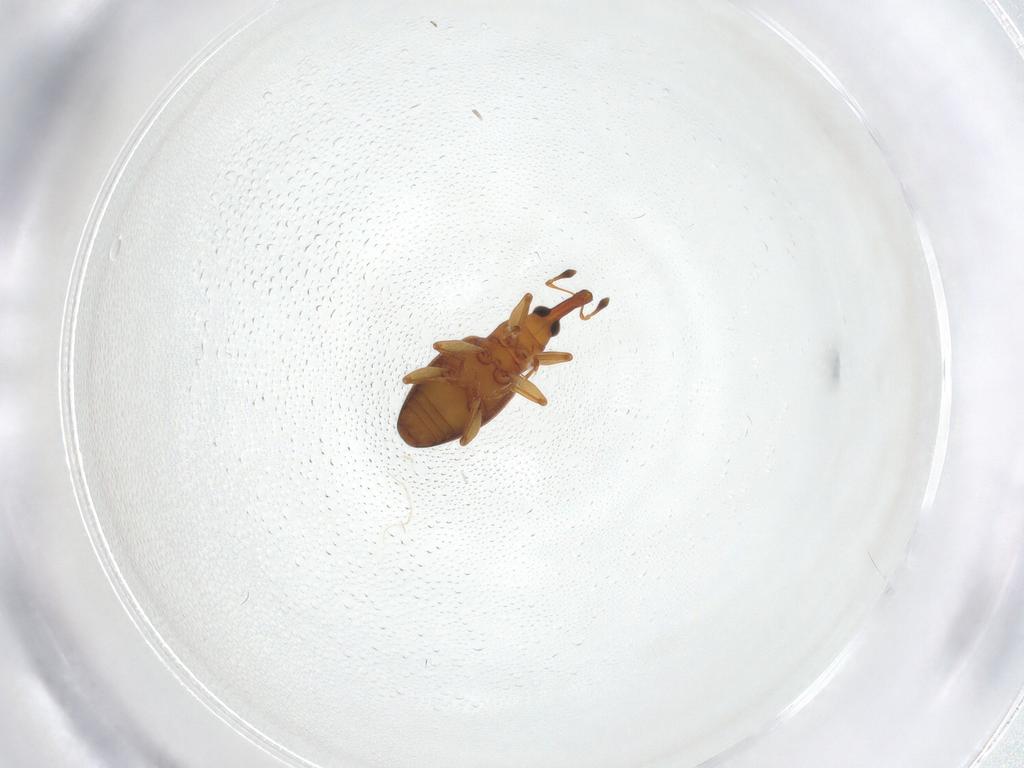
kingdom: Animalia
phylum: Arthropoda
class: Insecta
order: Coleoptera
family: Curculionidae
